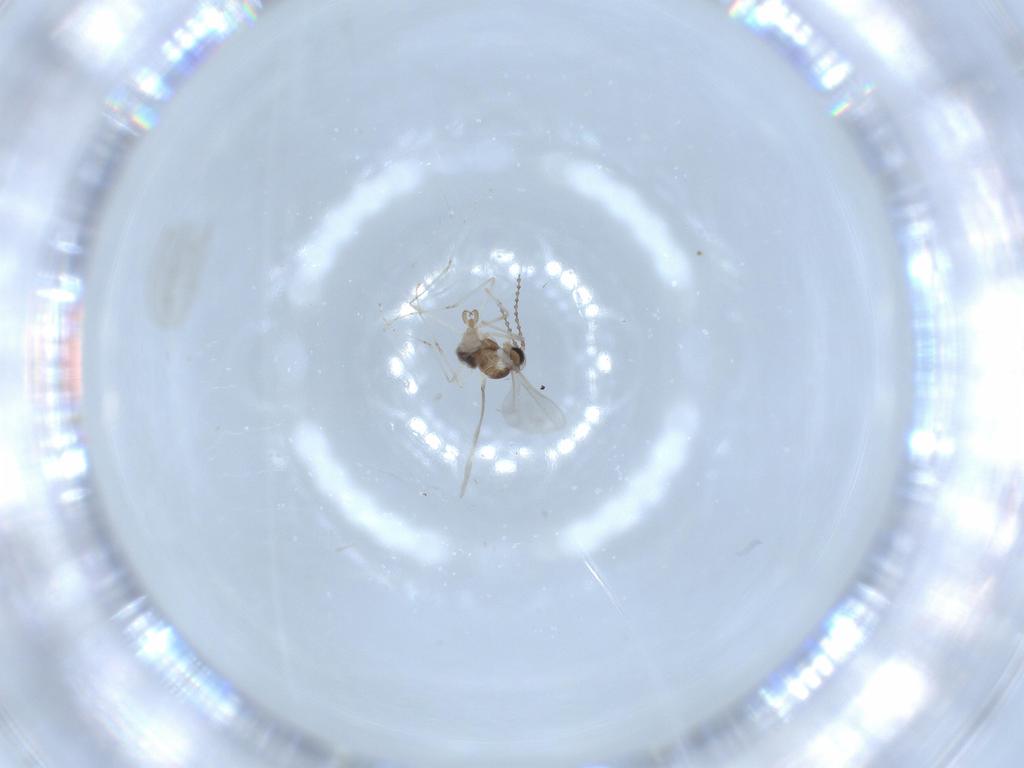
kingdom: Animalia
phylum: Arthropoda
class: Insecta
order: Diptera
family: Cecidomyiidae
